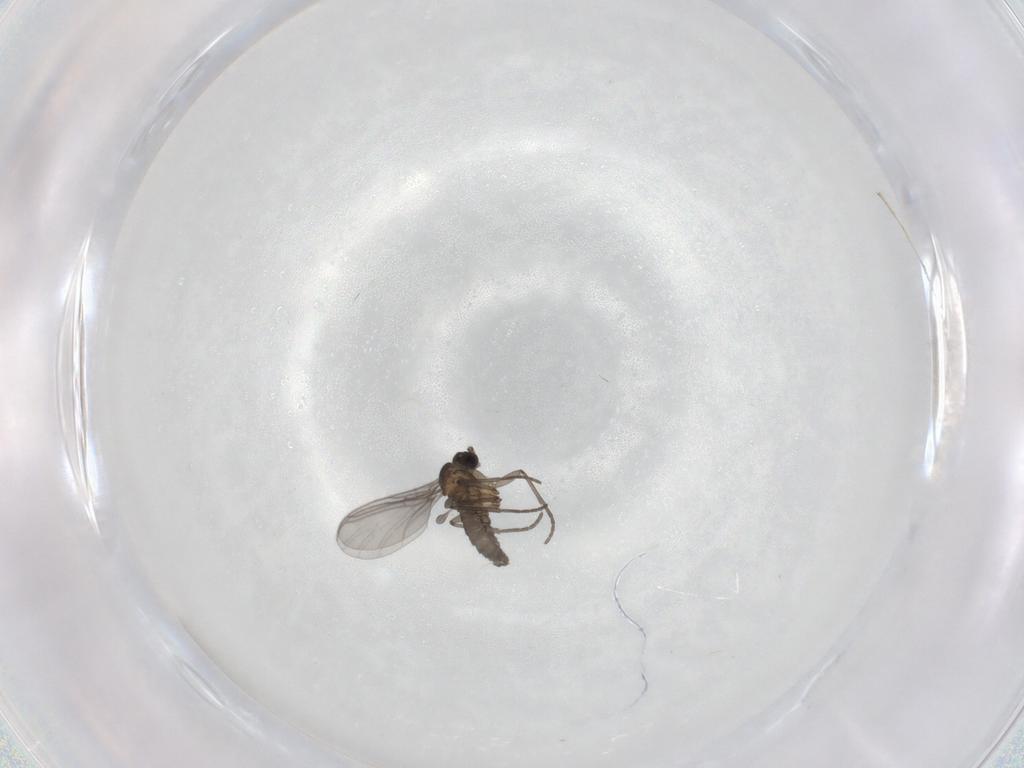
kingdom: Animalia
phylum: Arthropoda
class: Insecta
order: Diptera
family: Limoniidae
